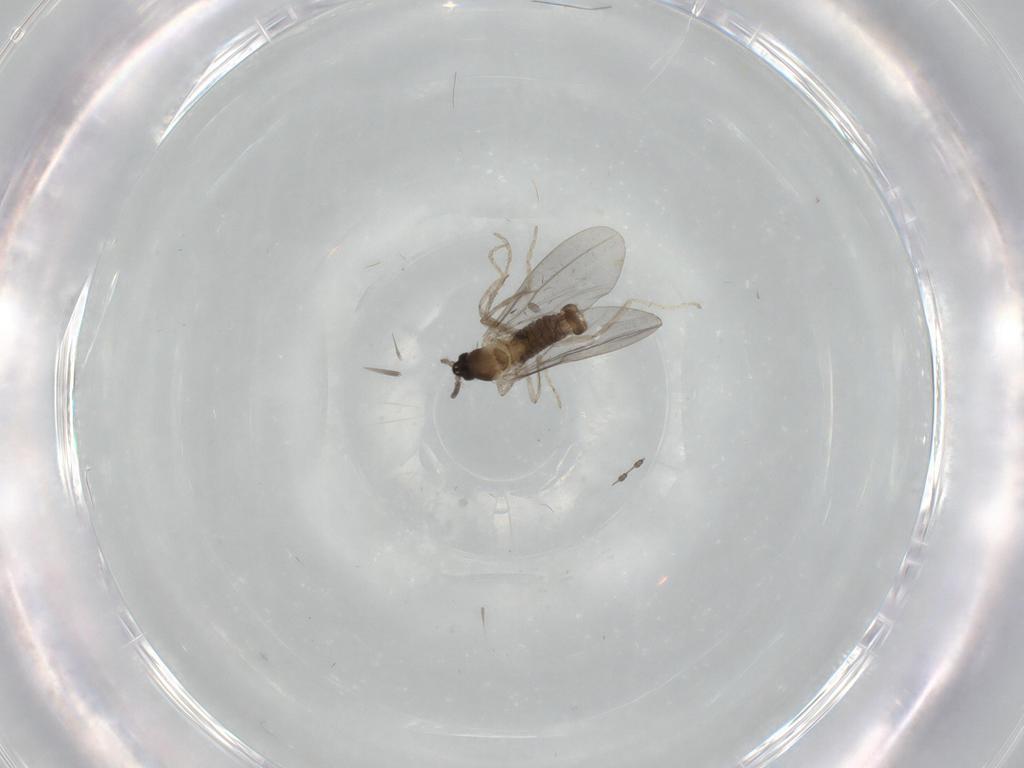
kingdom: Animalia
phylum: Arthropoda
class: Insecta
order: Diptera
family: Cecidomyiidae
